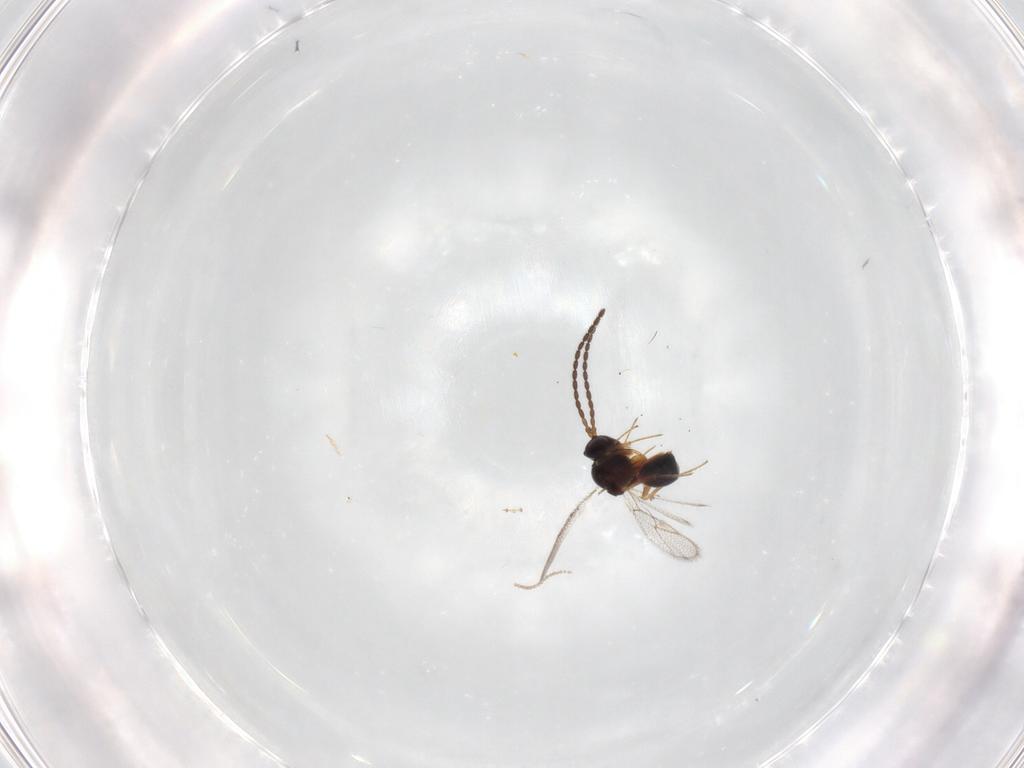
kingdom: Animalia
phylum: Arthropoda
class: Insecta
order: Hymenoptera
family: Figitidae
